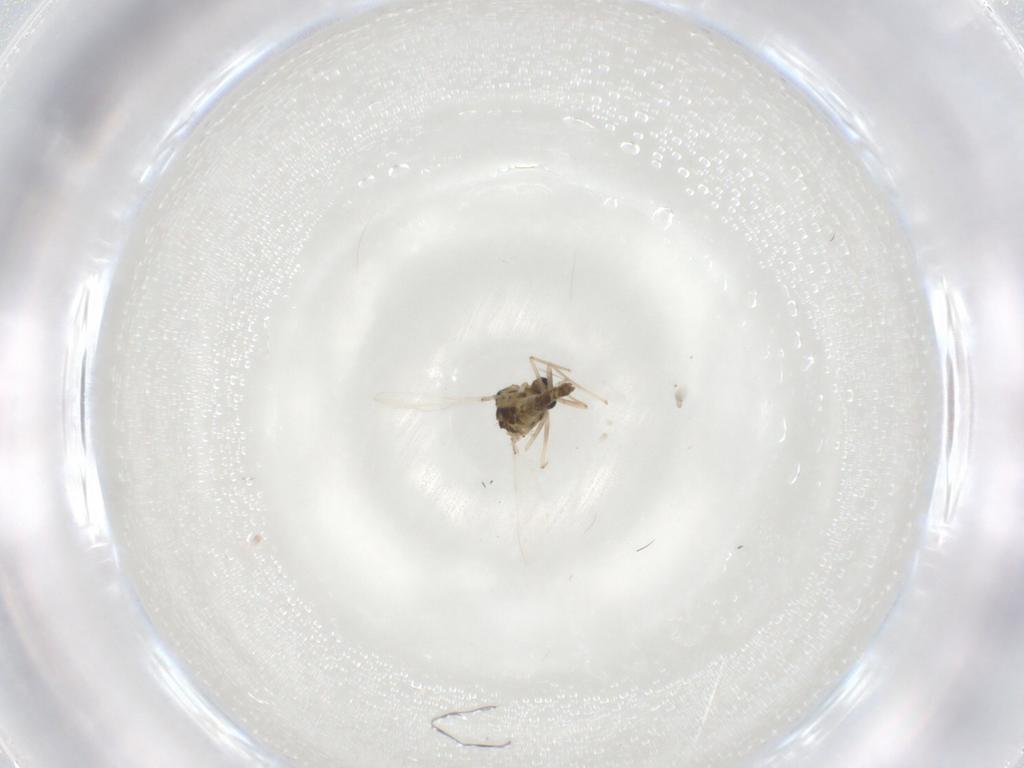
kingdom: Animalia
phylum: Arthropoda
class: Insecta
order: Diptera
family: Chironomidae
